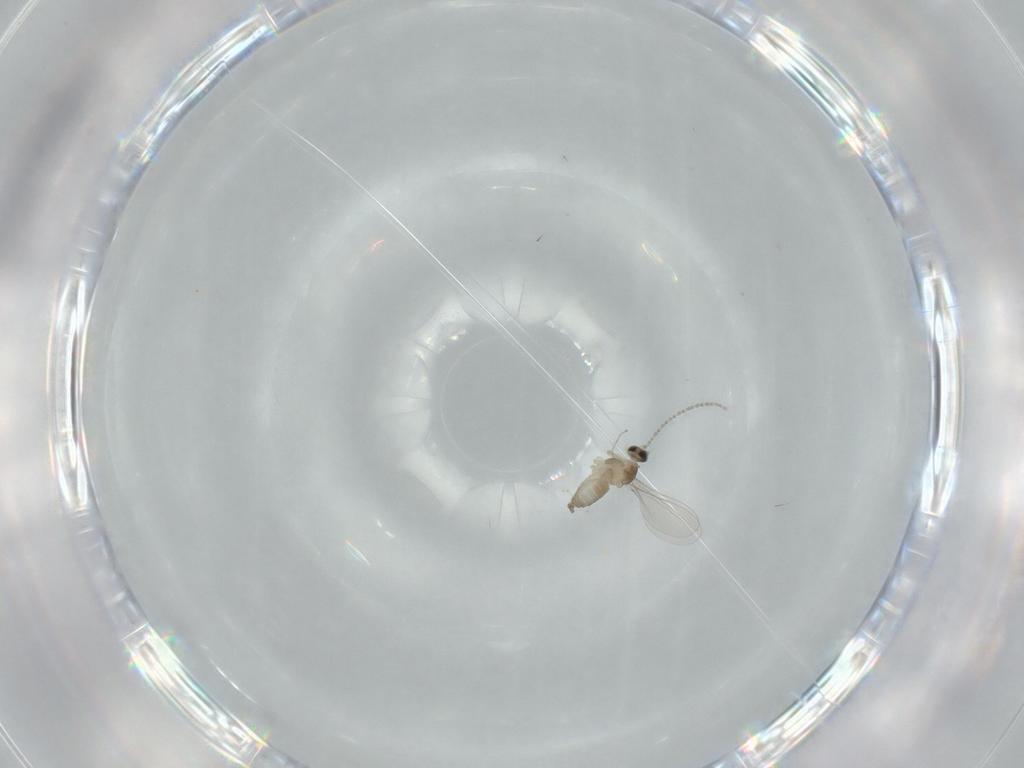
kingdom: Animalia
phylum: Arthropoda
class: Insecta
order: Diptera
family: Cecidomyiidae
